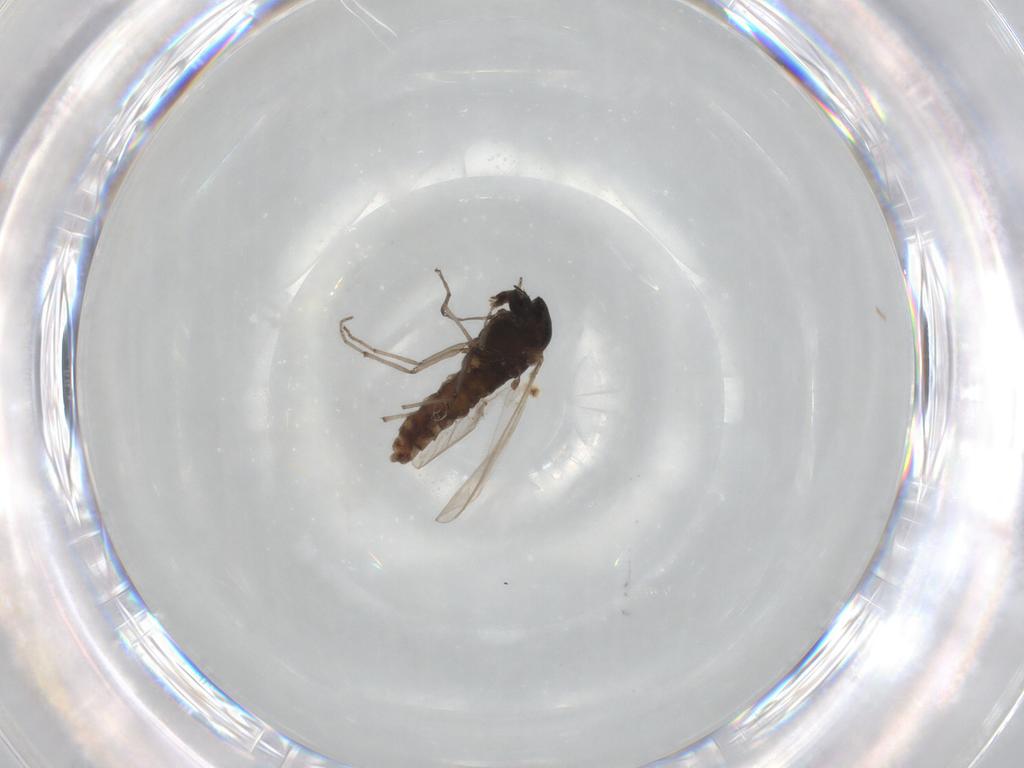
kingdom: Animalia
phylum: Arthropoda
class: Insecta
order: Diptera
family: Chironomidae
